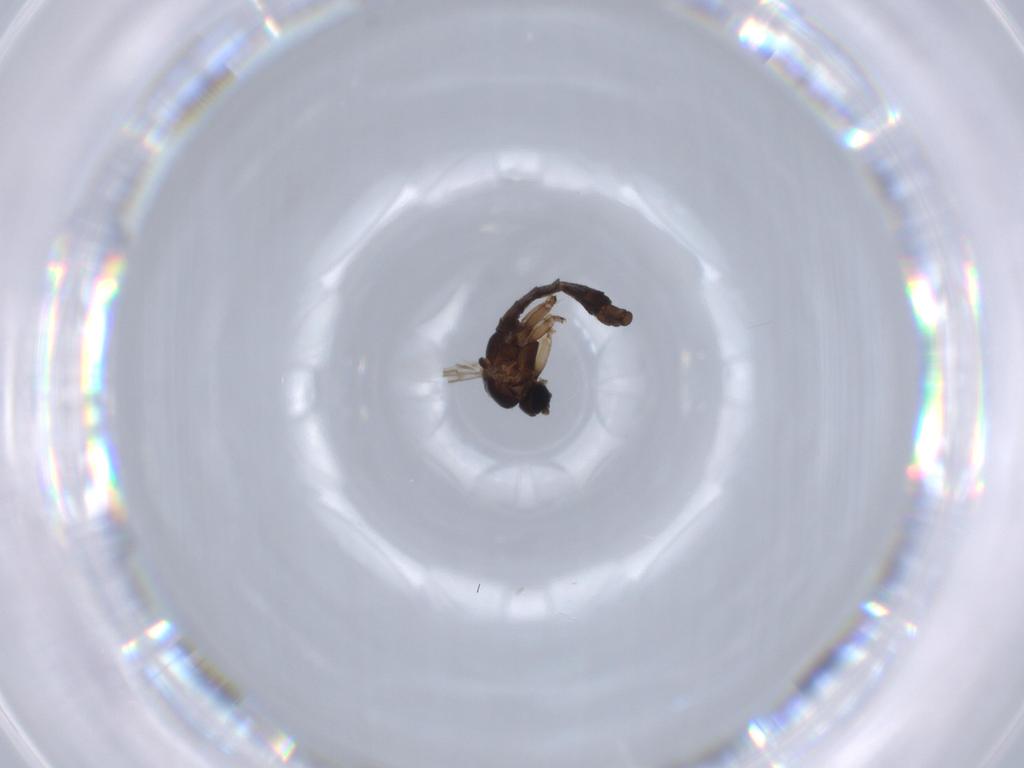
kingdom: Animalia
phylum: Arthropoda
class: Insecta
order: Diptera
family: Sciaridae
